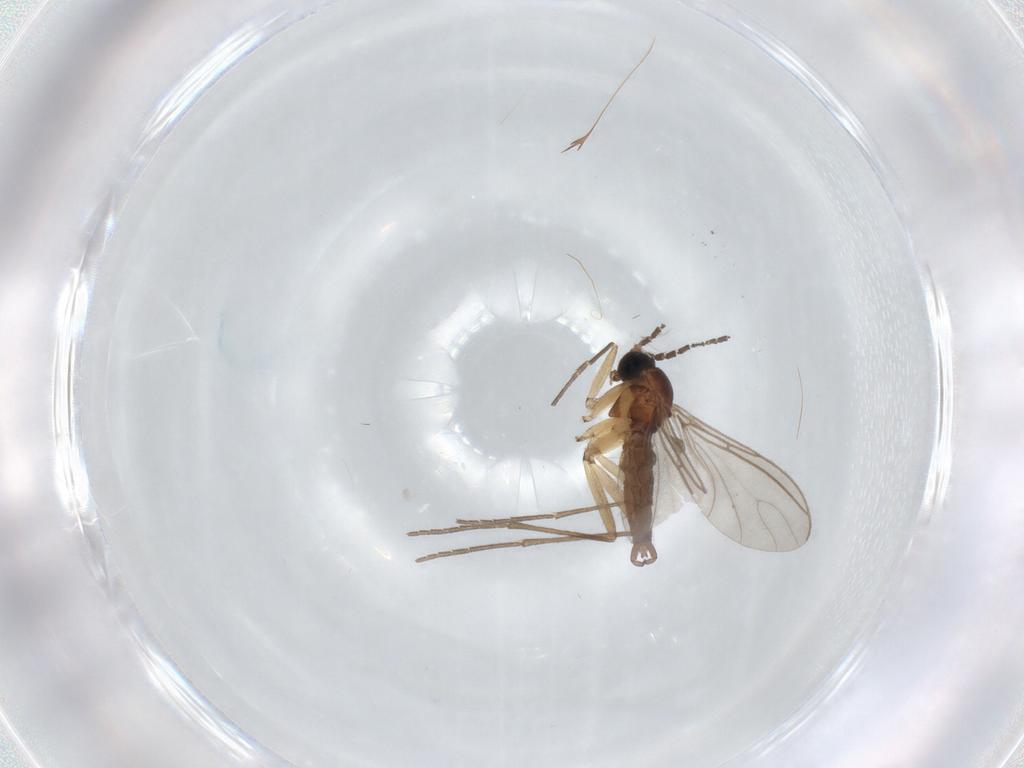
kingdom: Animalia
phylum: Arthropoda
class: Insecta
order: Diptera
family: Sciaridae
